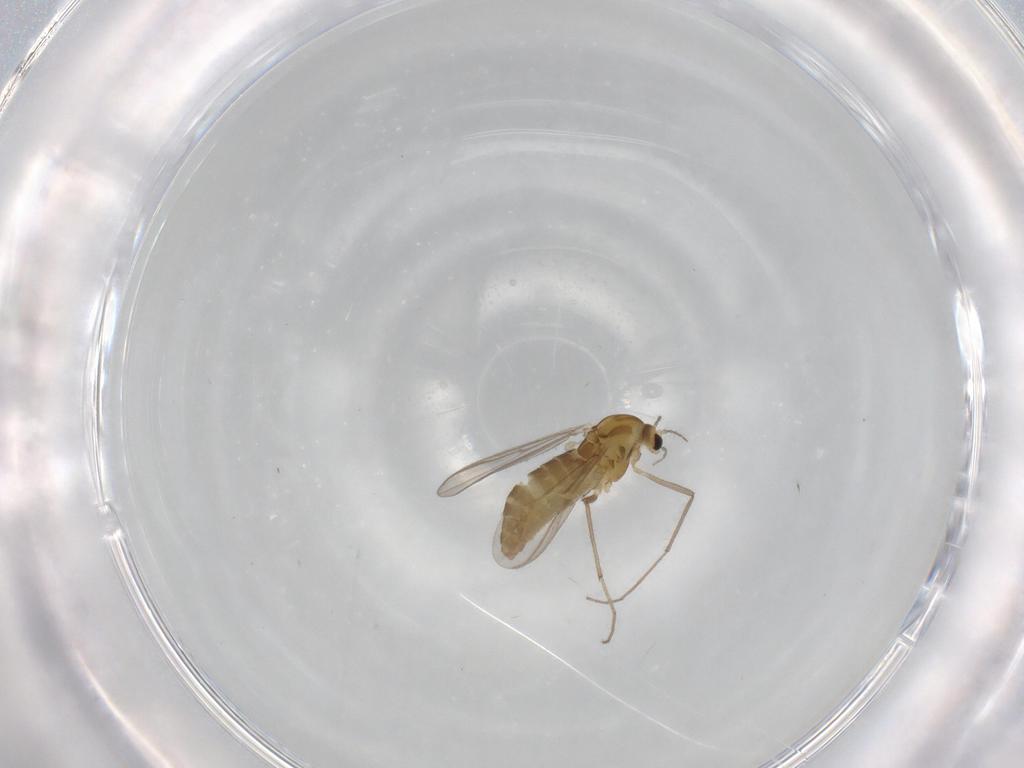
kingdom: Animalia
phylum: Arthropoda
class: Insecta
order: Diptera
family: Chironomidae
